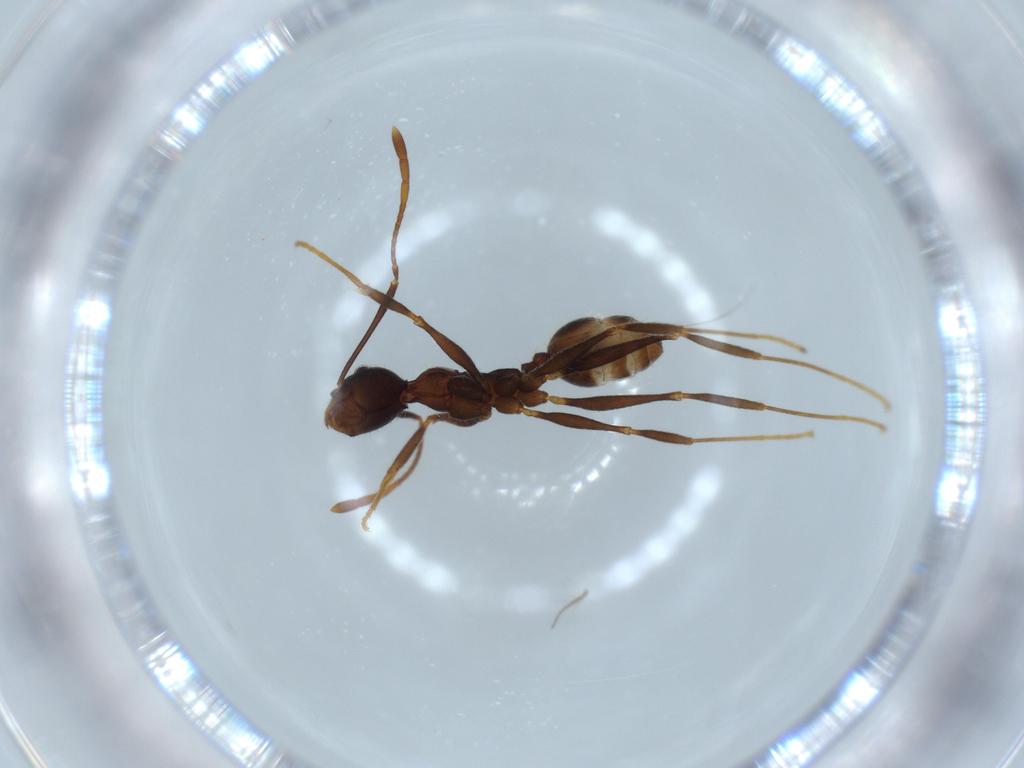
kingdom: Animalia
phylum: Arthropoda
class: Insecta
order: Hymenoptera
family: Formicidae
